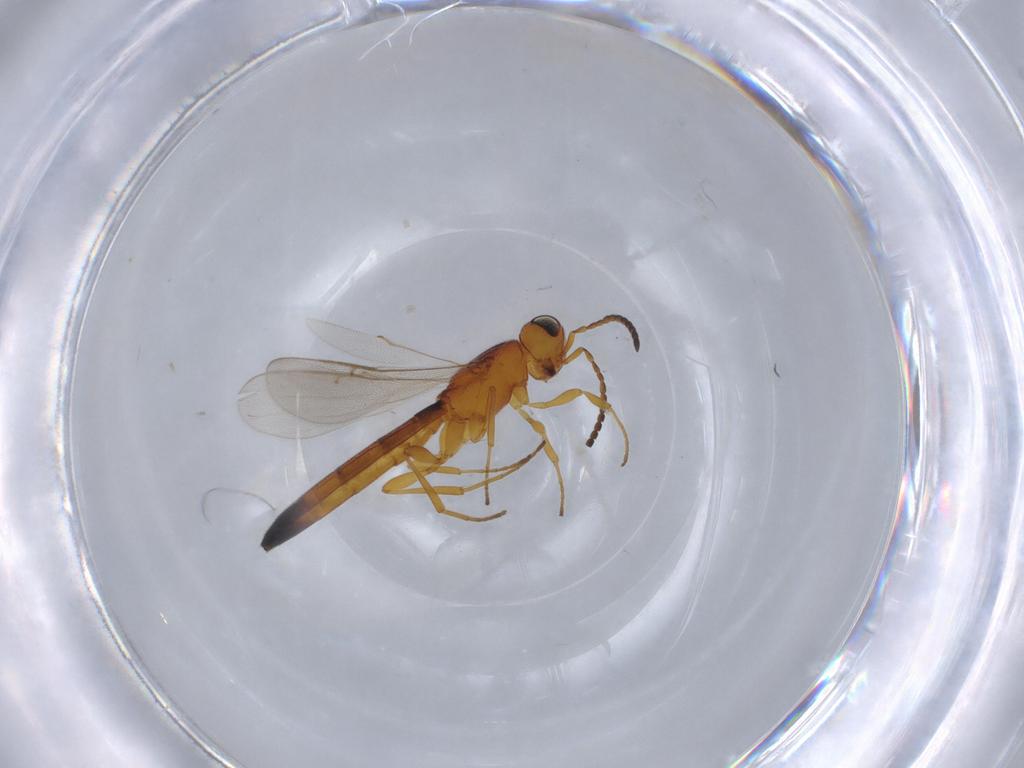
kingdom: Animalia
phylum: Arthropoda
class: Insecta
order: Hymenoptera
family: Scelionidae
